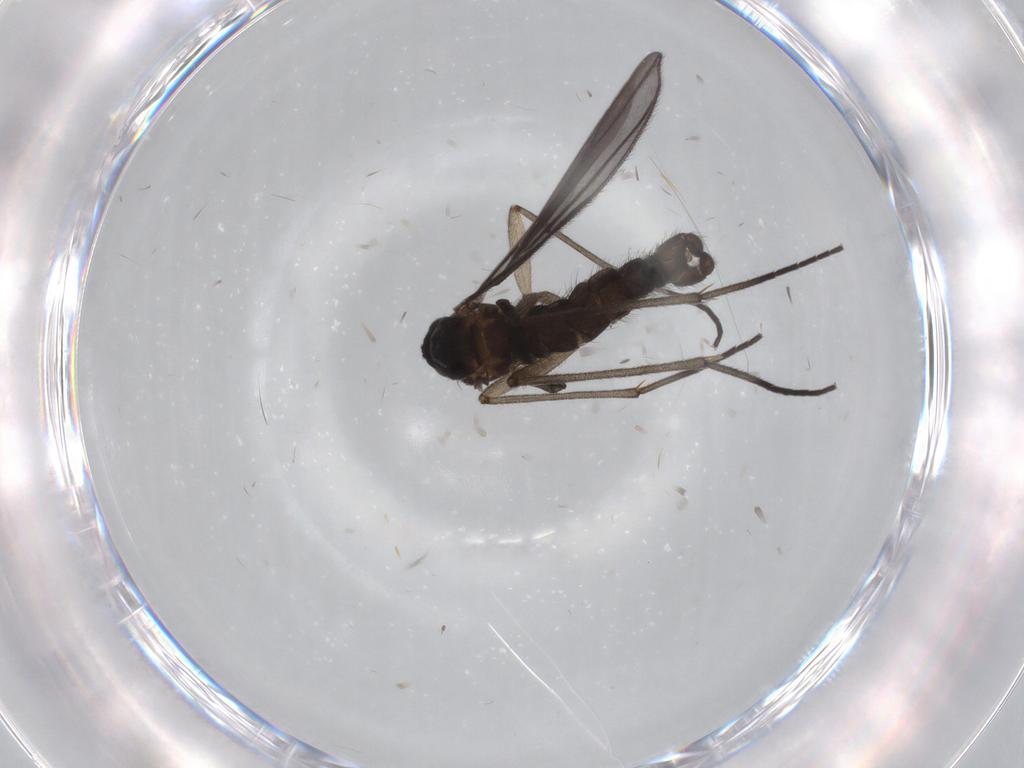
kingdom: Animalia
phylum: Arthropoda
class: Insecta
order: Diptera
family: Sciaridae
